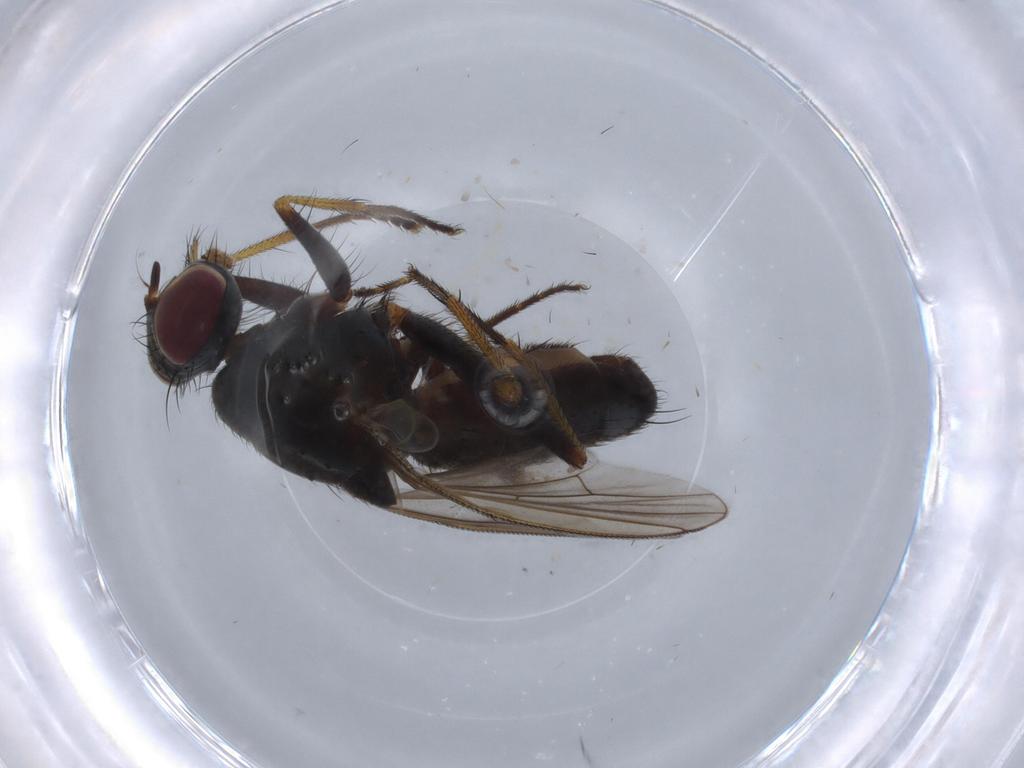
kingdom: Animalia
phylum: Arthropoda
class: Insecta
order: Diptera
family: Muscidae
